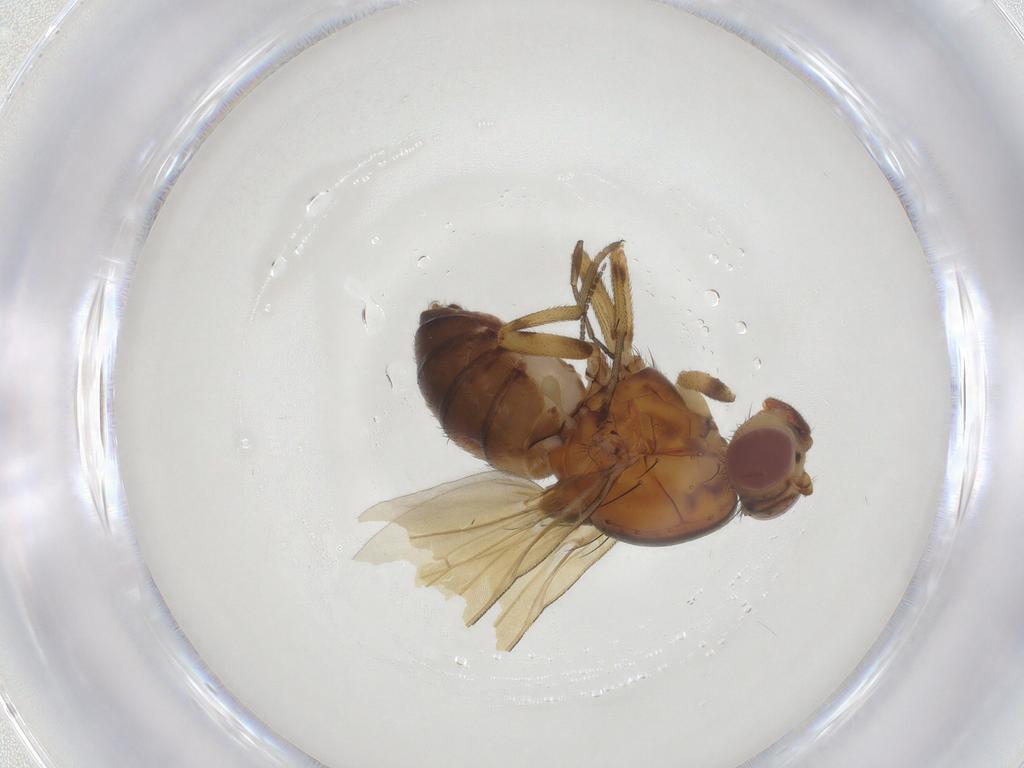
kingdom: Animalia
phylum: Arthropoda
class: Insecta
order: Diptera
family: Lauxaniidae
